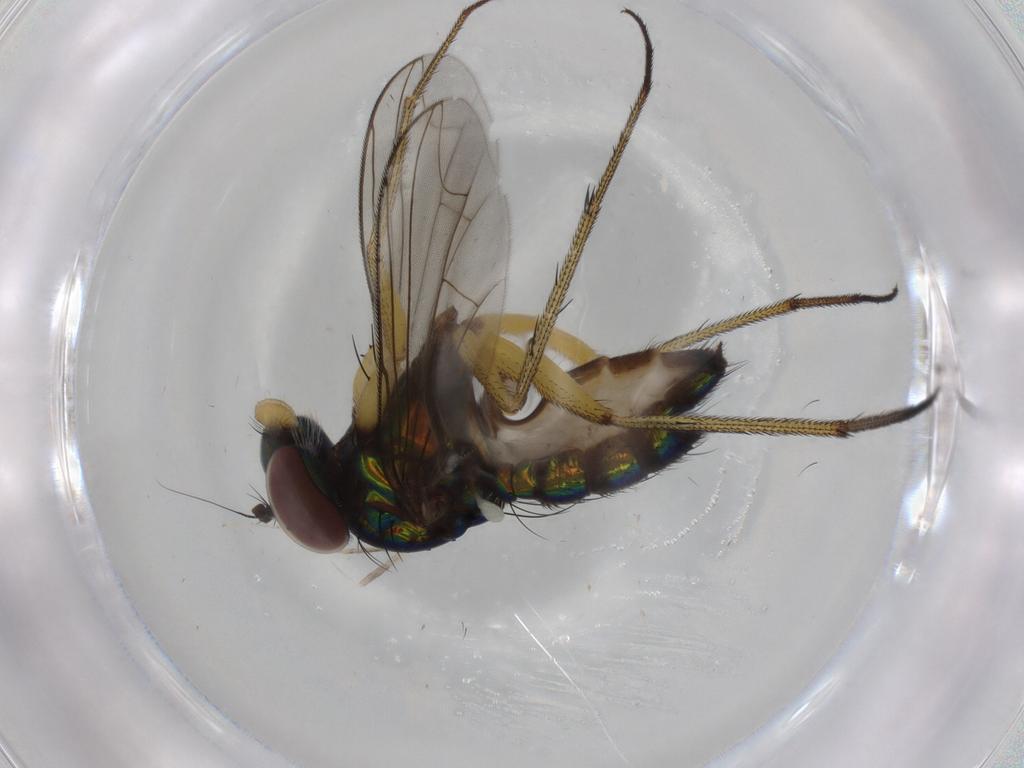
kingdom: Animalia
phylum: Arthropoda
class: Insecta
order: Diptera
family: Dolichopodidae
